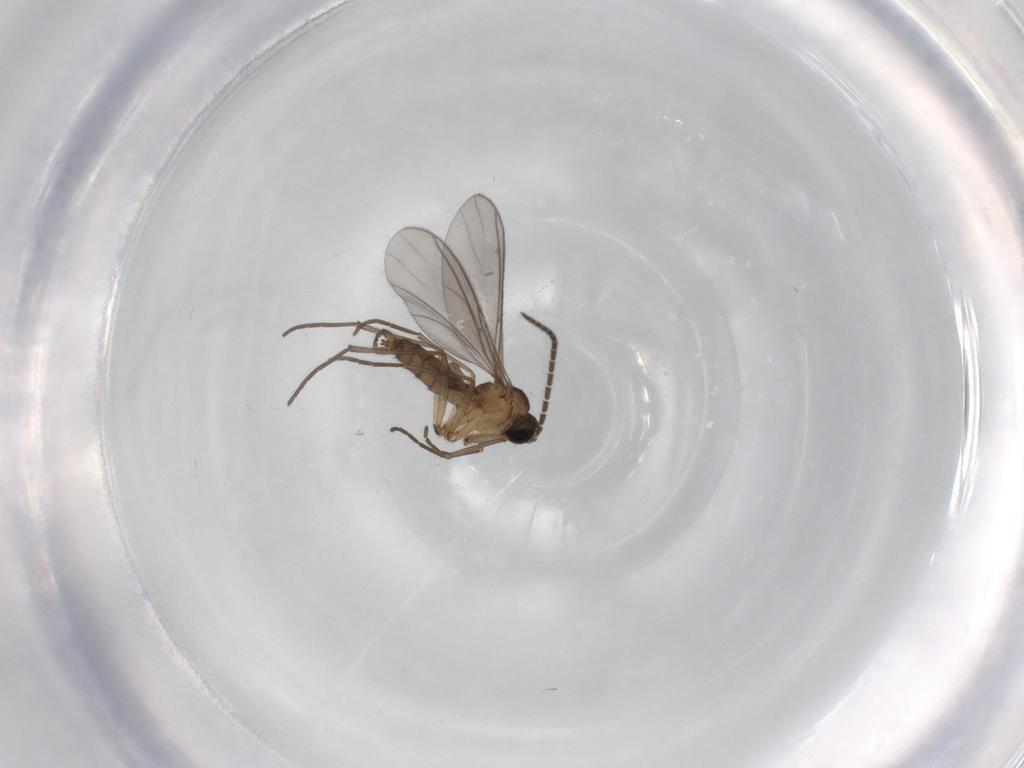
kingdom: Animalia
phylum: Arthropoda
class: Insecta
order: Diptera
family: Sciaridae
